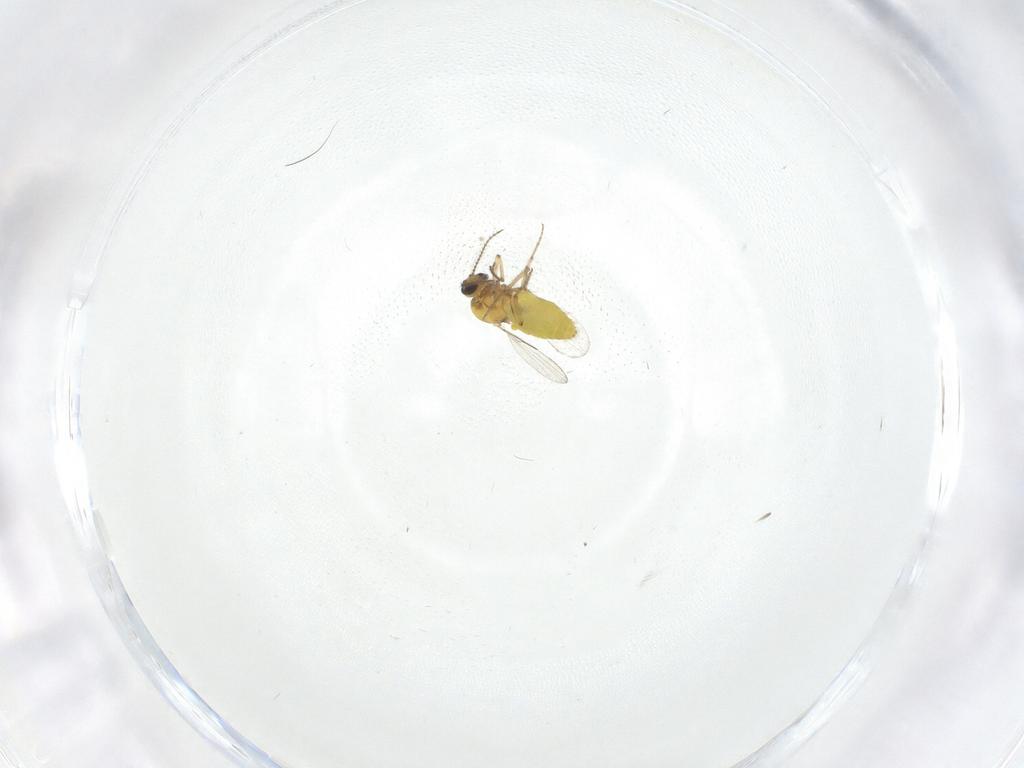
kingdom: Animalia
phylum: Arthropoda
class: Insecta
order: Diptera
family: Ceratopogonidae
